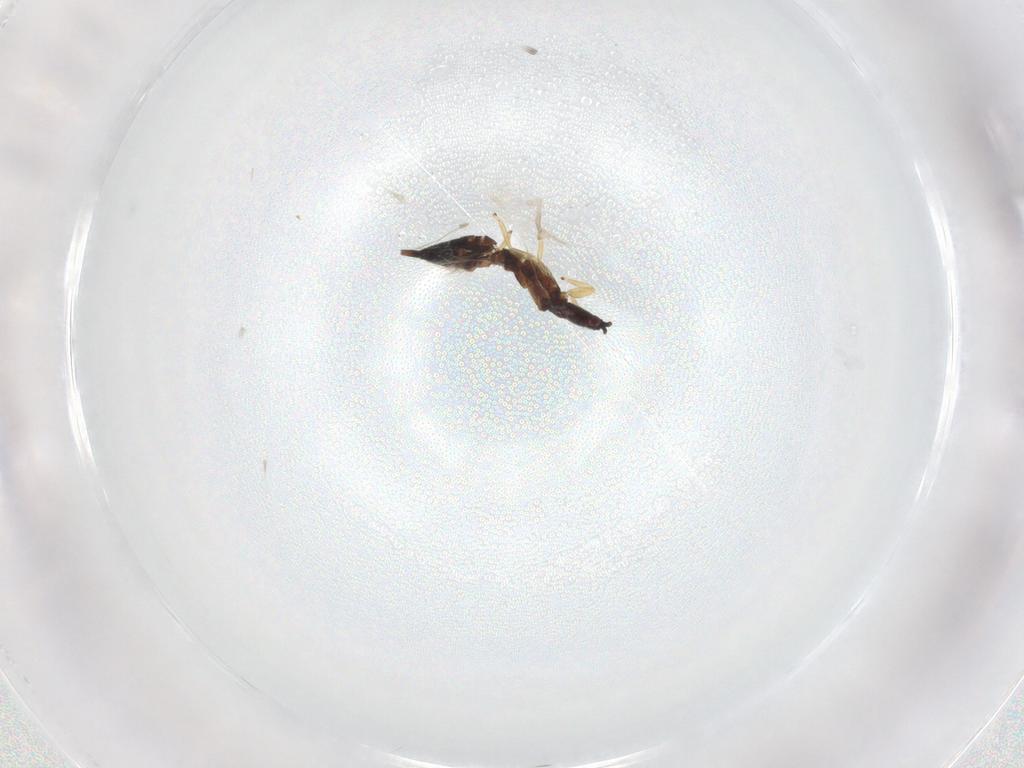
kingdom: Animalia
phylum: Arthropoda
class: Insecta
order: Thysanoptera
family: Phlaeothripidae
